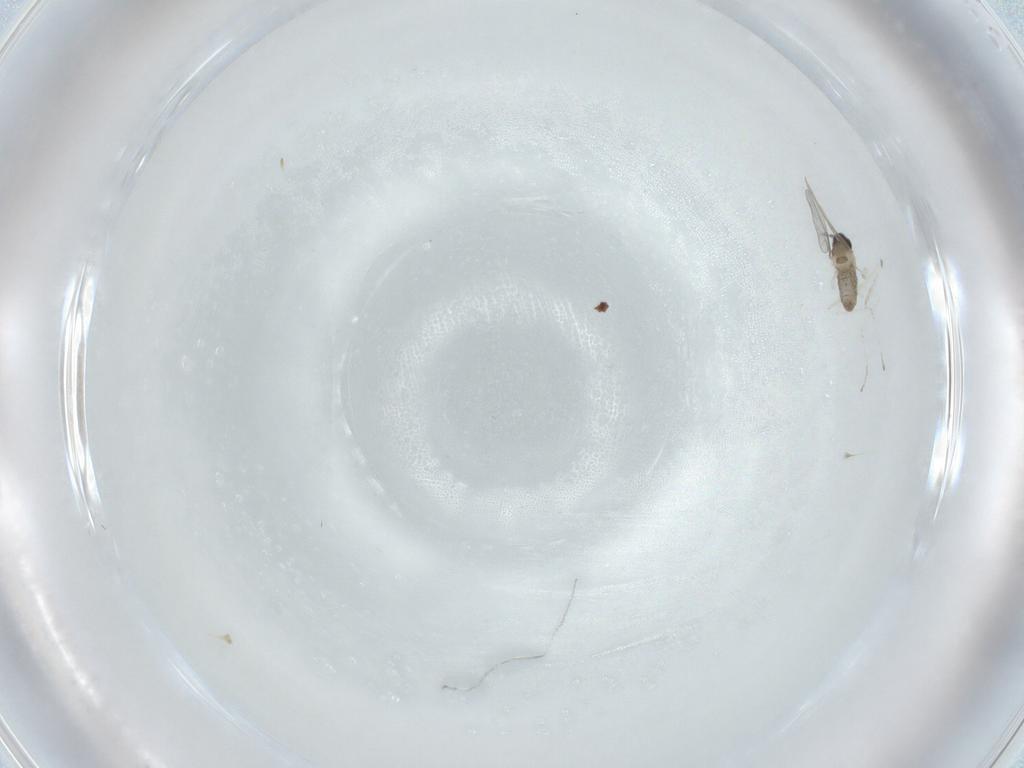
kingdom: Animalia
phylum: Arthropoda
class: Insecta
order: Diptera
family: Cecidomyiidae
